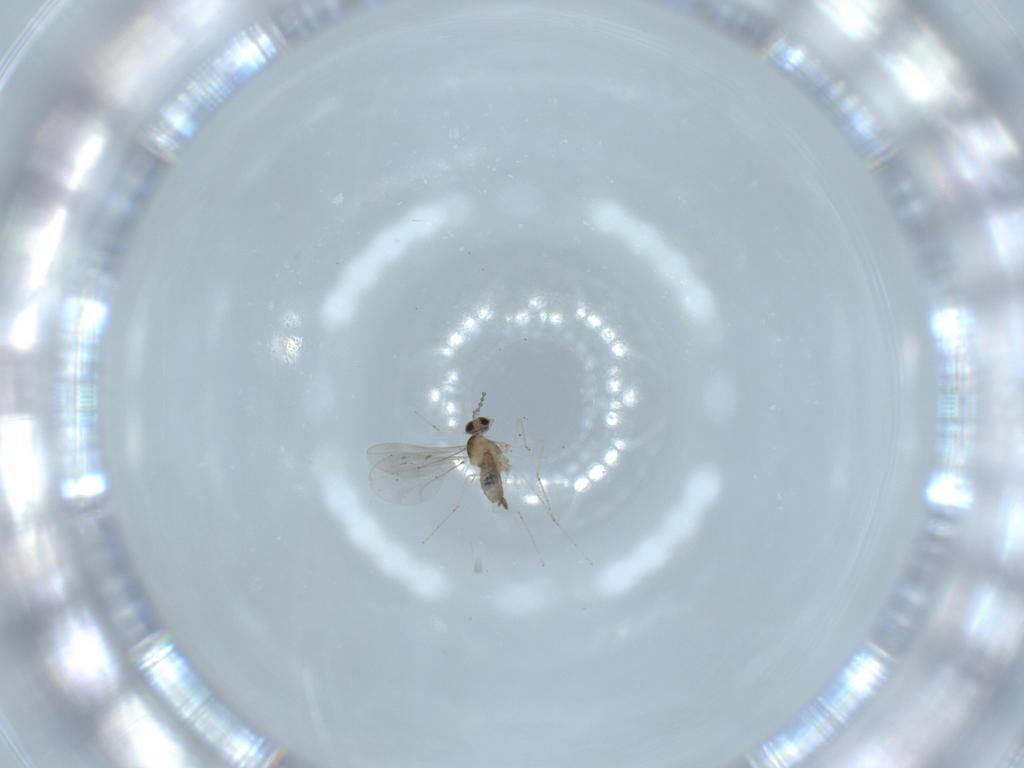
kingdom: Animalia
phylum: Arthropoda
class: Insecta
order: Diptera
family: Cecidomyiidae
